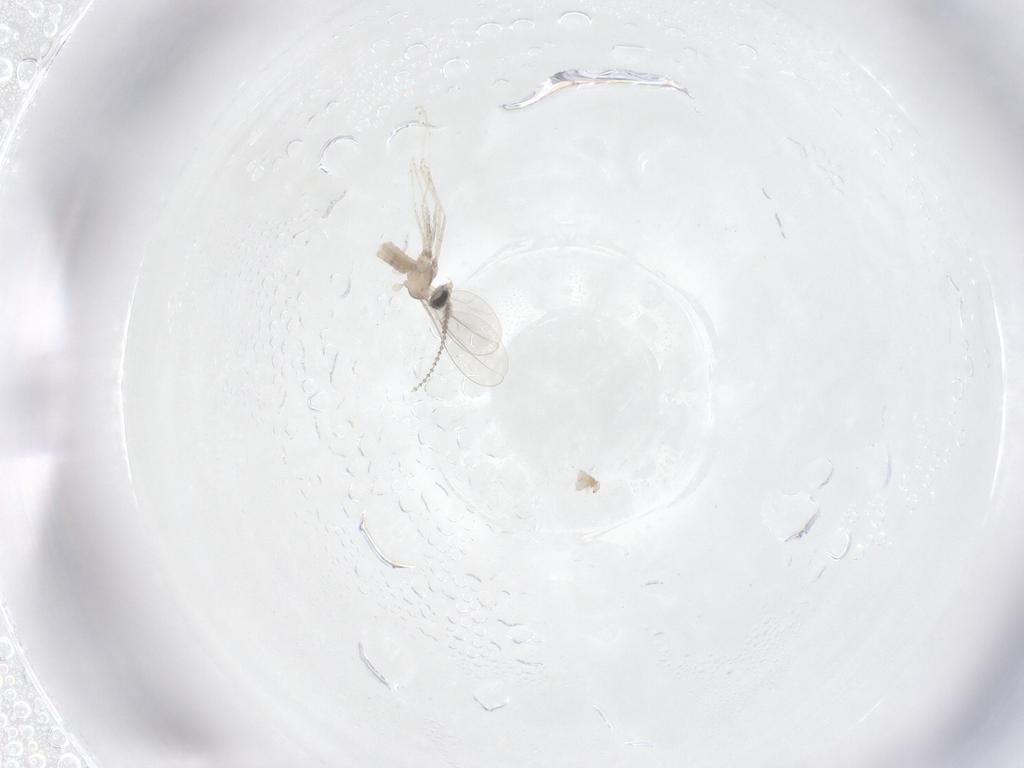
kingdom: Animalia
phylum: Arthropoda
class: Insecta
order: Diptera
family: Cecidomyiidae
